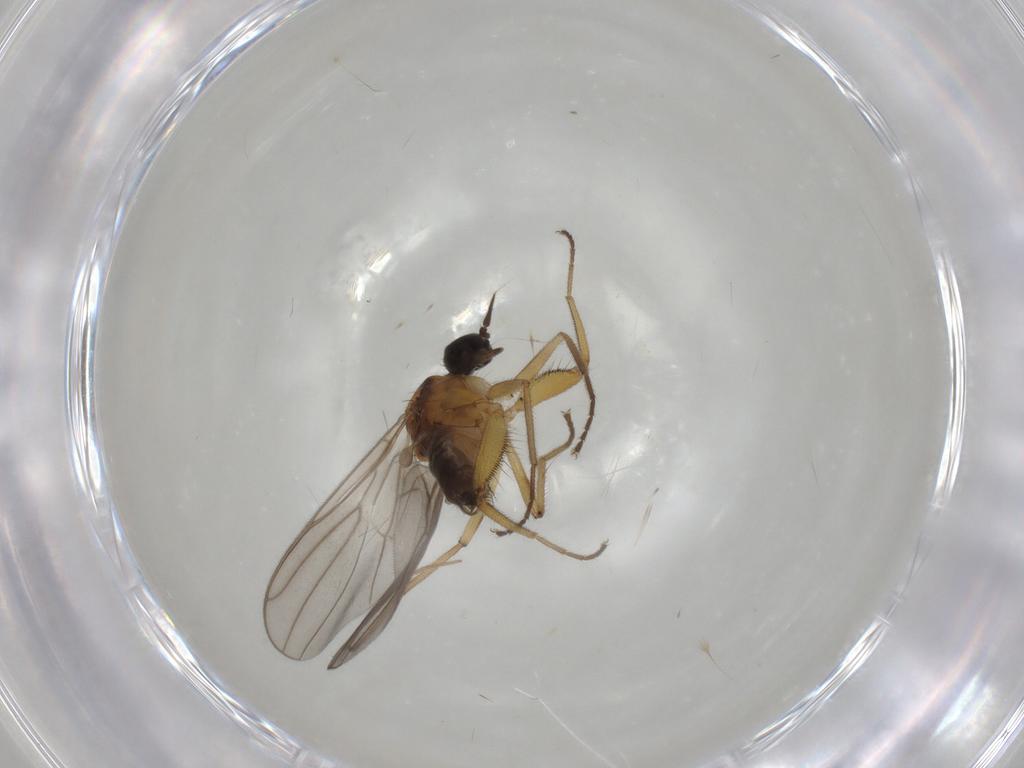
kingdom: Animalia
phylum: Arthropoda
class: Insecta
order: Diptera
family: Hybotidae
